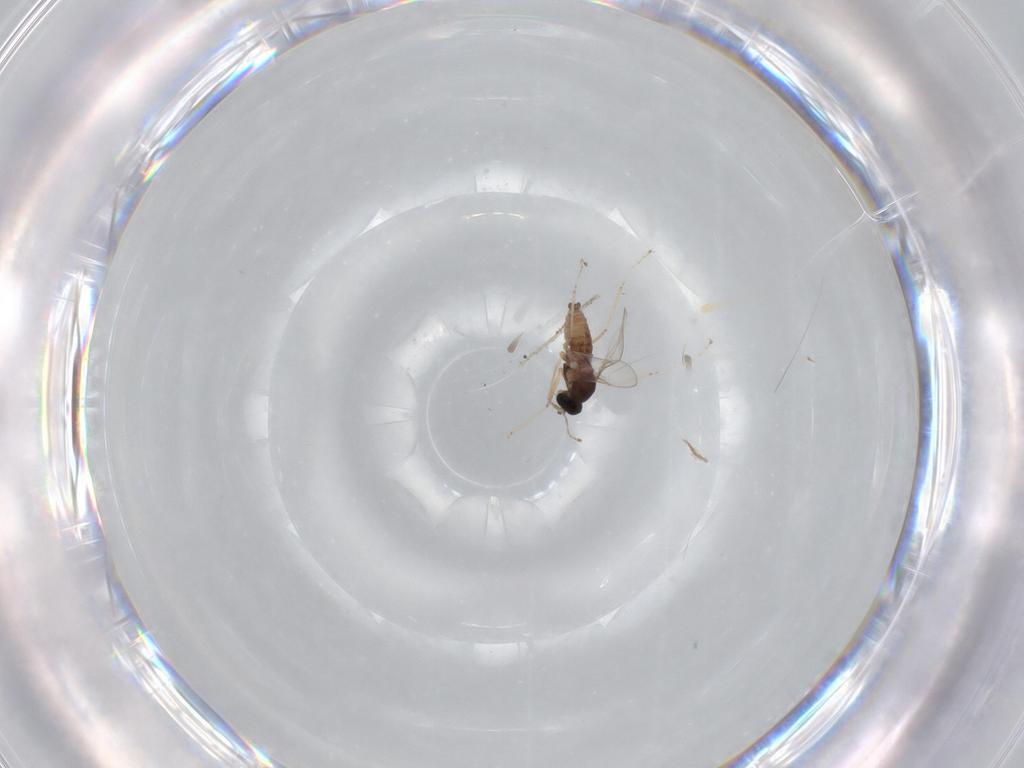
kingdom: Animalia
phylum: Arthropoda
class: Insecta
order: Diptera
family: Cecidomyiidae
